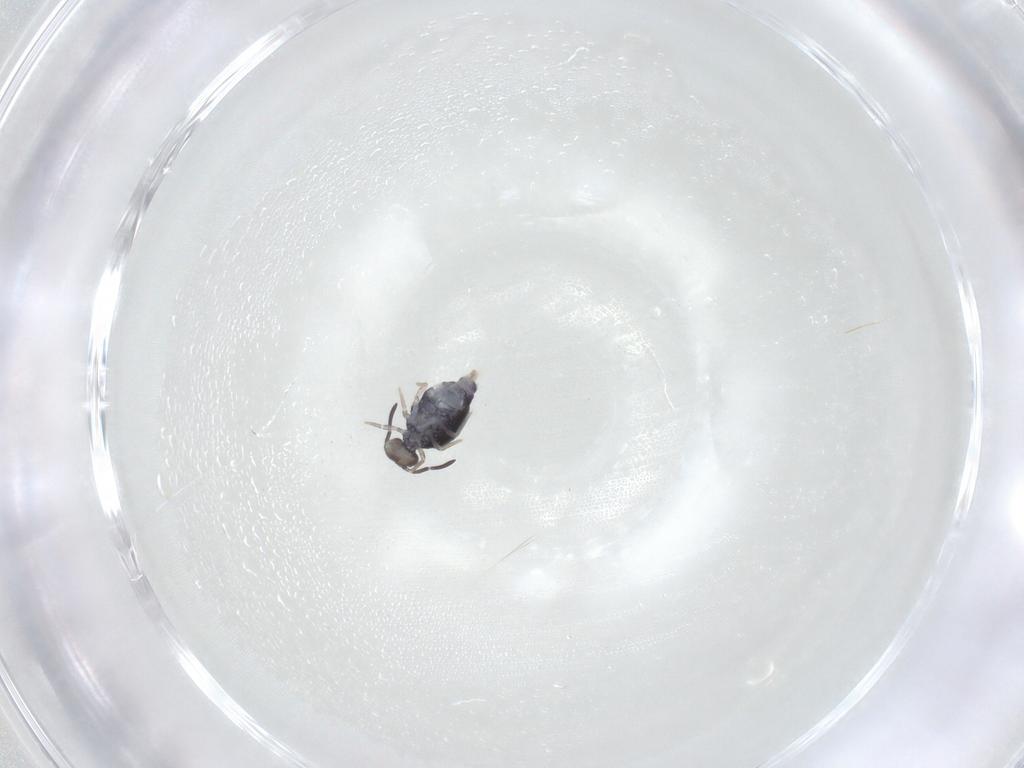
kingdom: Animalia
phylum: Arthropoda
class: Collembola
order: Symphypleona
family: Katiannidae
